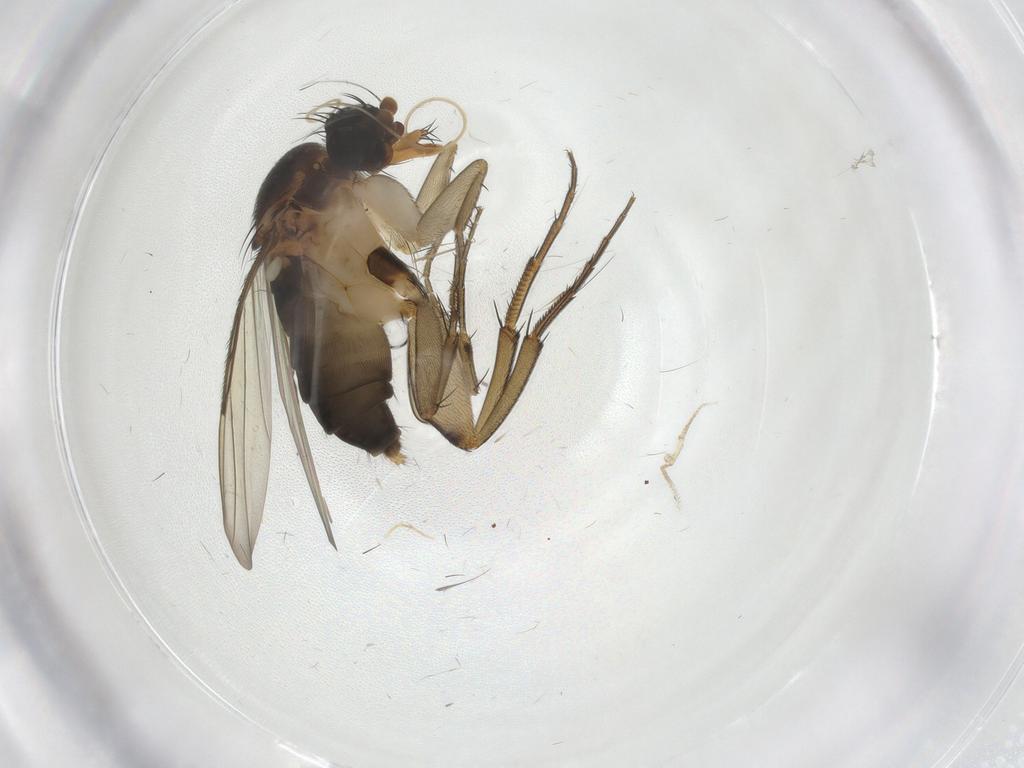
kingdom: Animalia
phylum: Arthropoda
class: Insecta
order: Diptera
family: Phoridae
